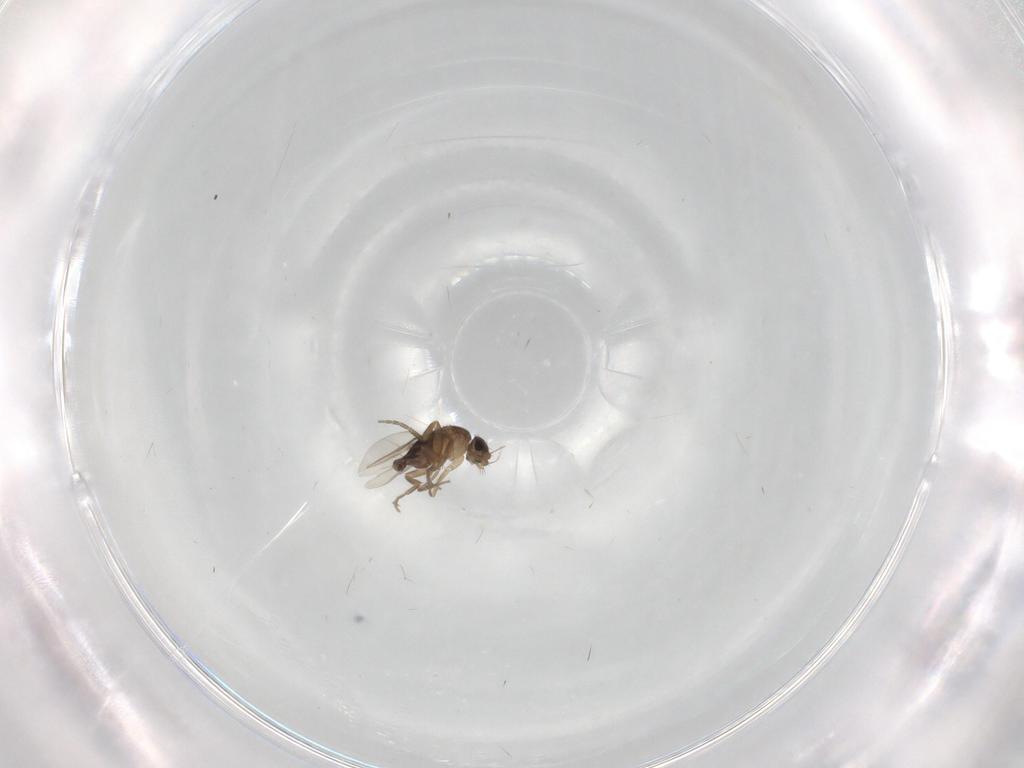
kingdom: Animalia
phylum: Arthropoda
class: Insecta
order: Diptera
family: Phoridae
